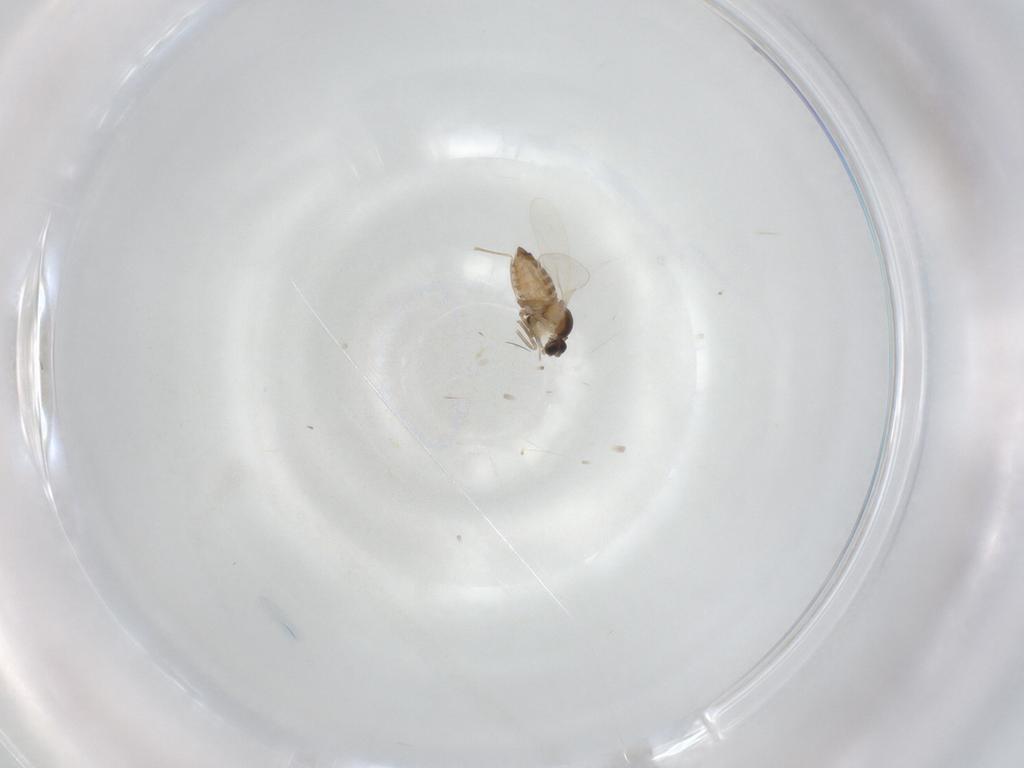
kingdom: Animalia
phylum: Arthropoda
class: Insecta
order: Diptera
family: Cecidomyiidae
